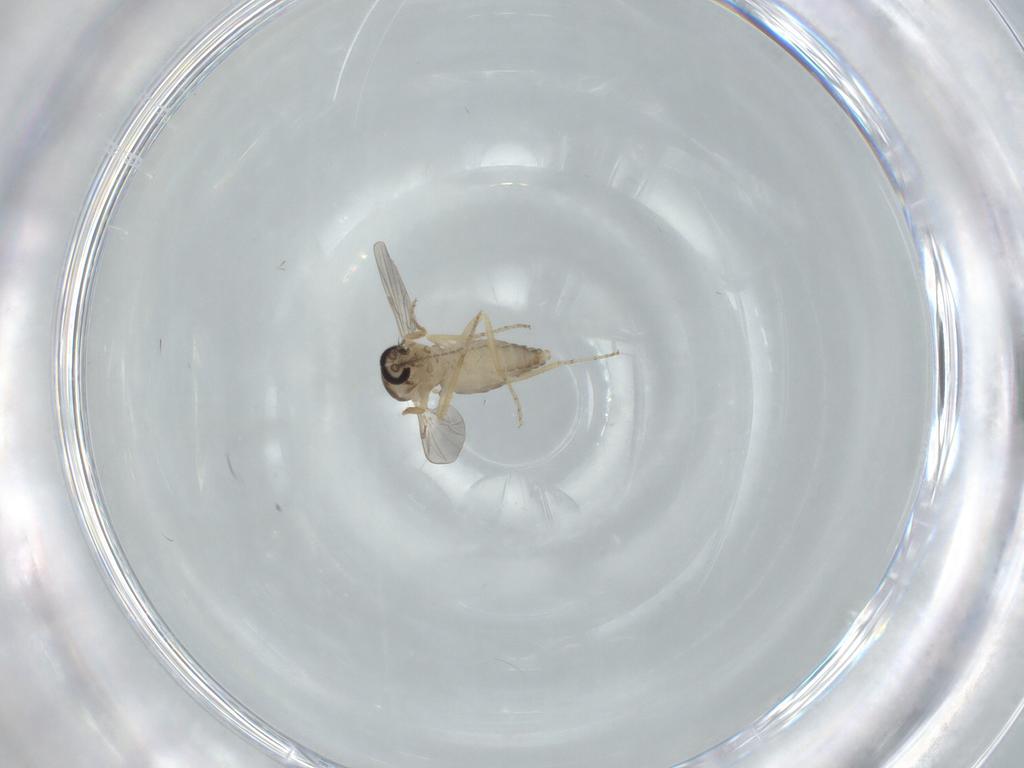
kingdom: Animalia
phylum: Arthropoda
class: Insecta
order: Diptera
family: Ceratopogonidae
